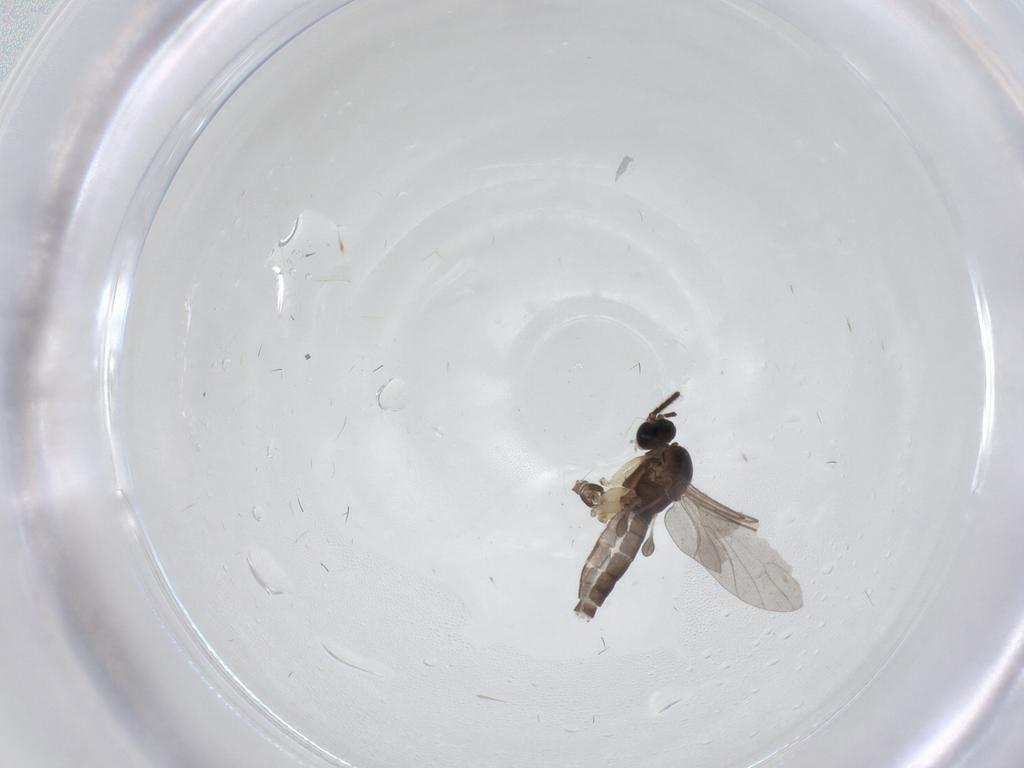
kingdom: Animalia
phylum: Arthropoda
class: Insecta
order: Diptera
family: Sciaridae
